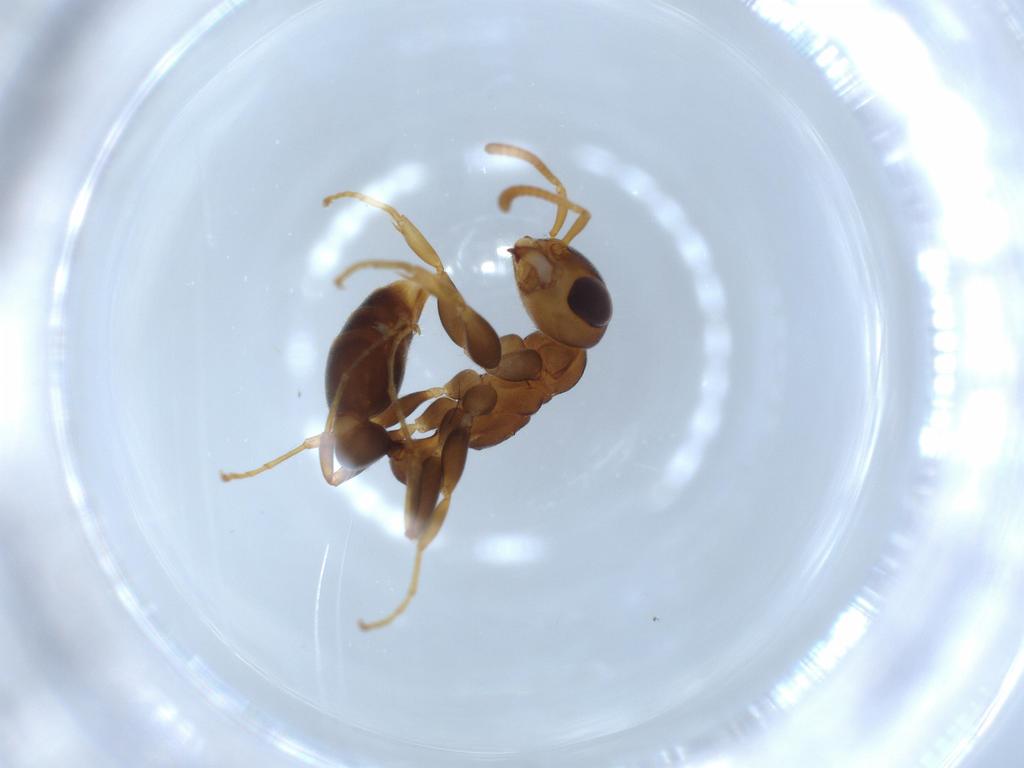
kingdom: Animalia
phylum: Arthropoda
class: Insecta
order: Hymenoptera
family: Formicidae
